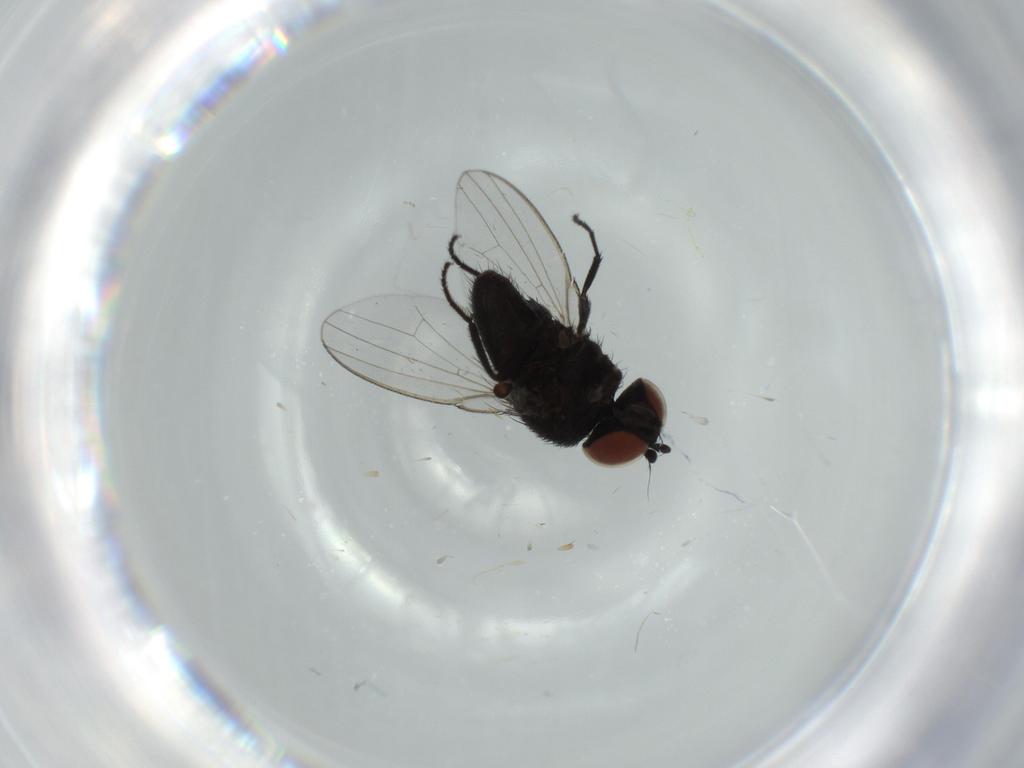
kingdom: Animalia
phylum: Arthropoda
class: Insecta
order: Diptera
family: Milichiidae
